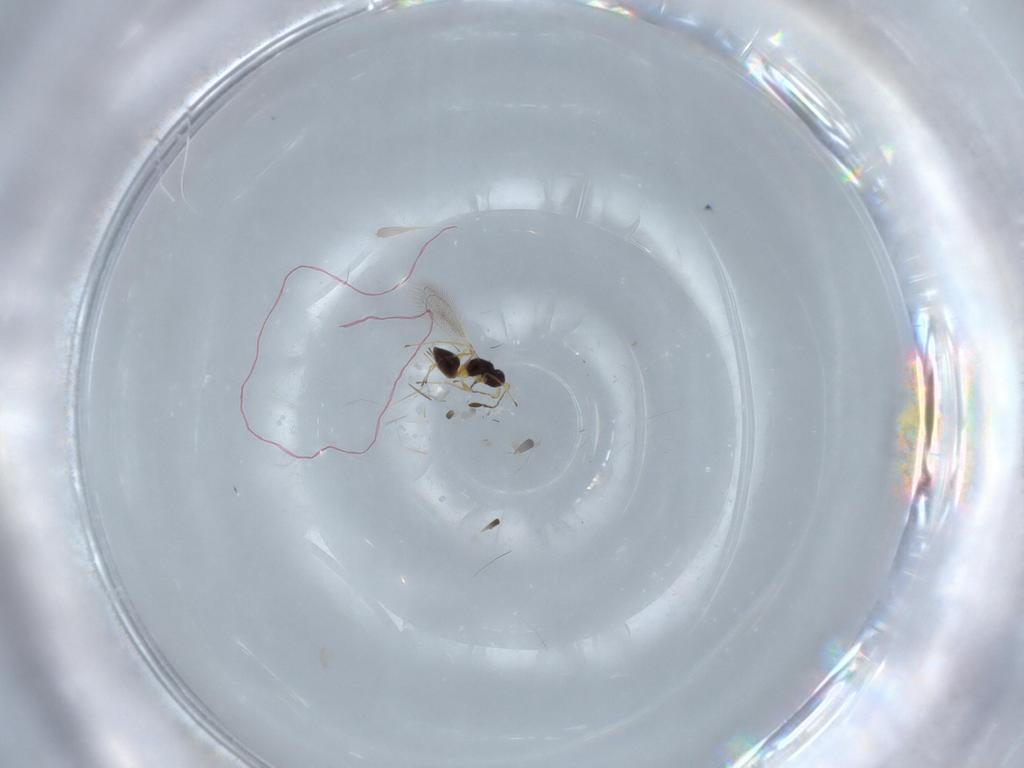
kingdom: Animalia
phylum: Arthropoda
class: Insecta
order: Hymenoptera
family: Mymaridae
